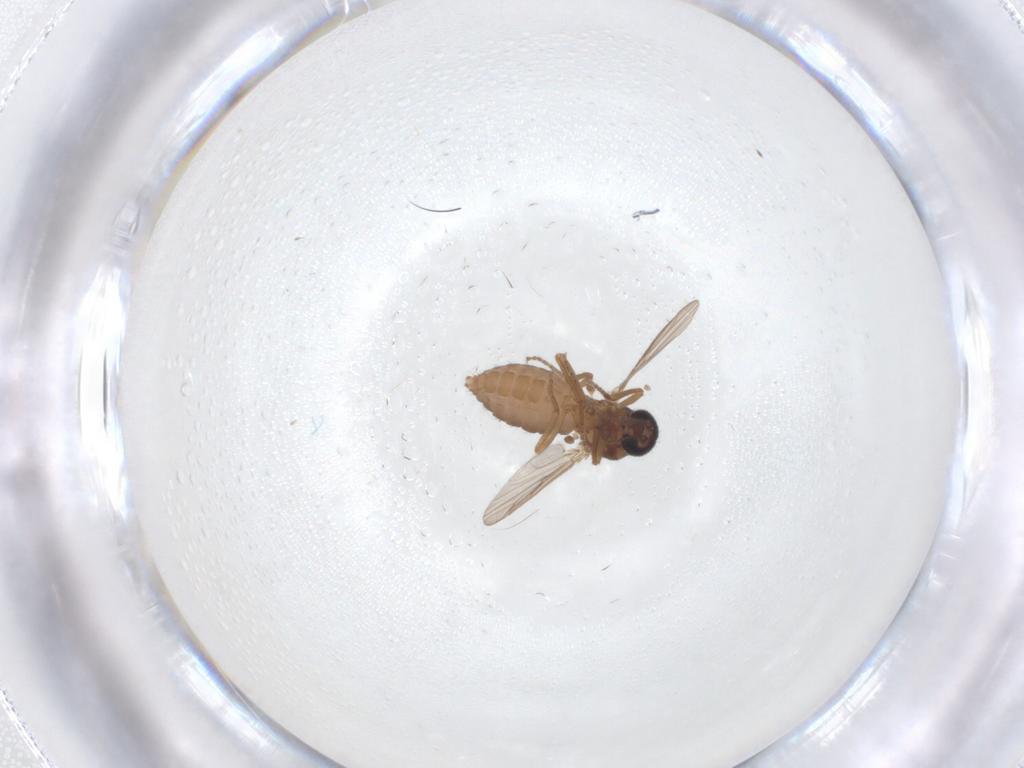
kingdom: Animalia
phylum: Arthropoda
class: Insecta
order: Diptera
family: Ceratopogonidae
